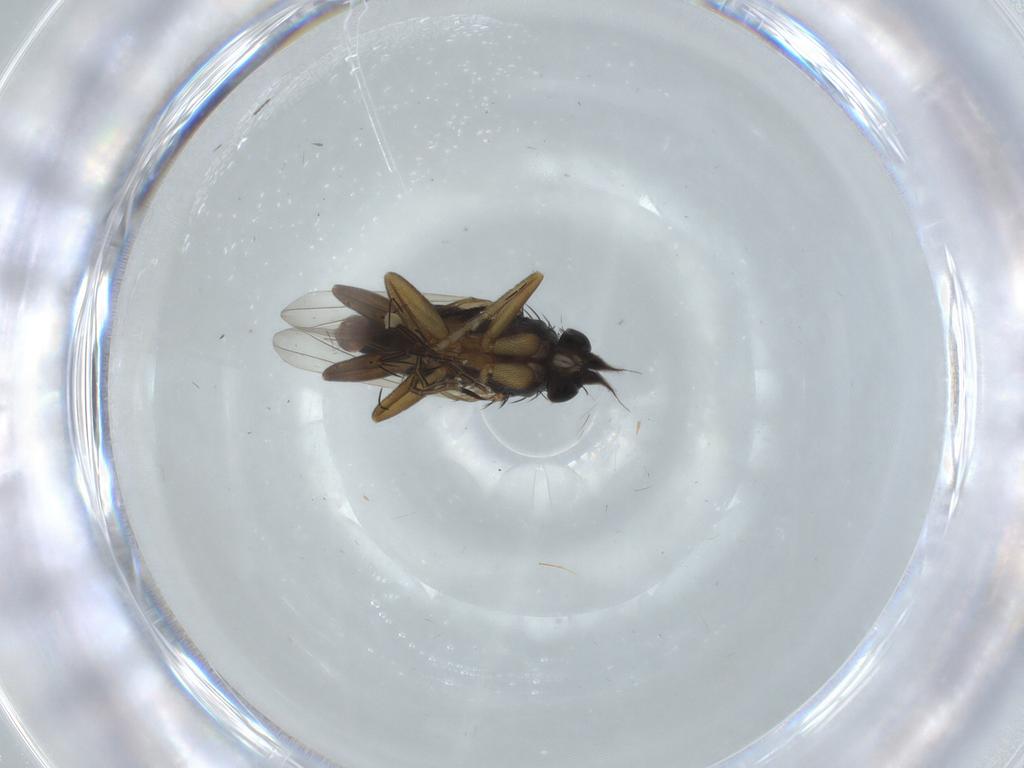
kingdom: Animalia
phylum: Arthropoda
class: Insecta
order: Diptera
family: Phoridae
